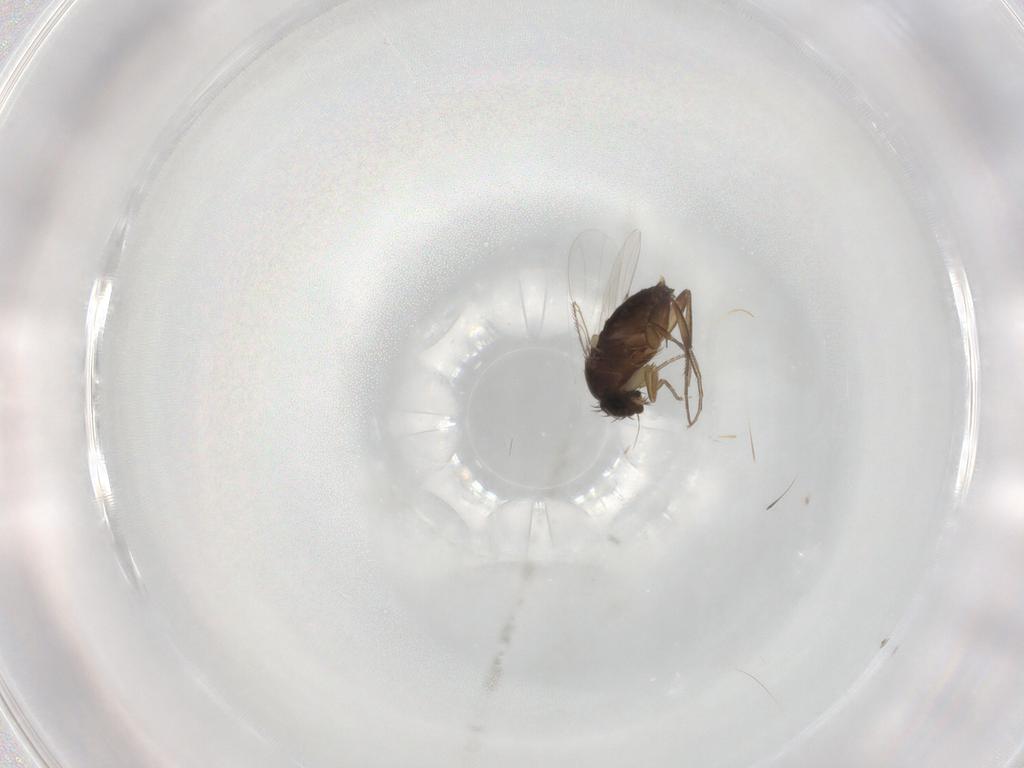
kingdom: Animalia
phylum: Arthropoda
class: Insecta
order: Diptera
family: Phoridae
